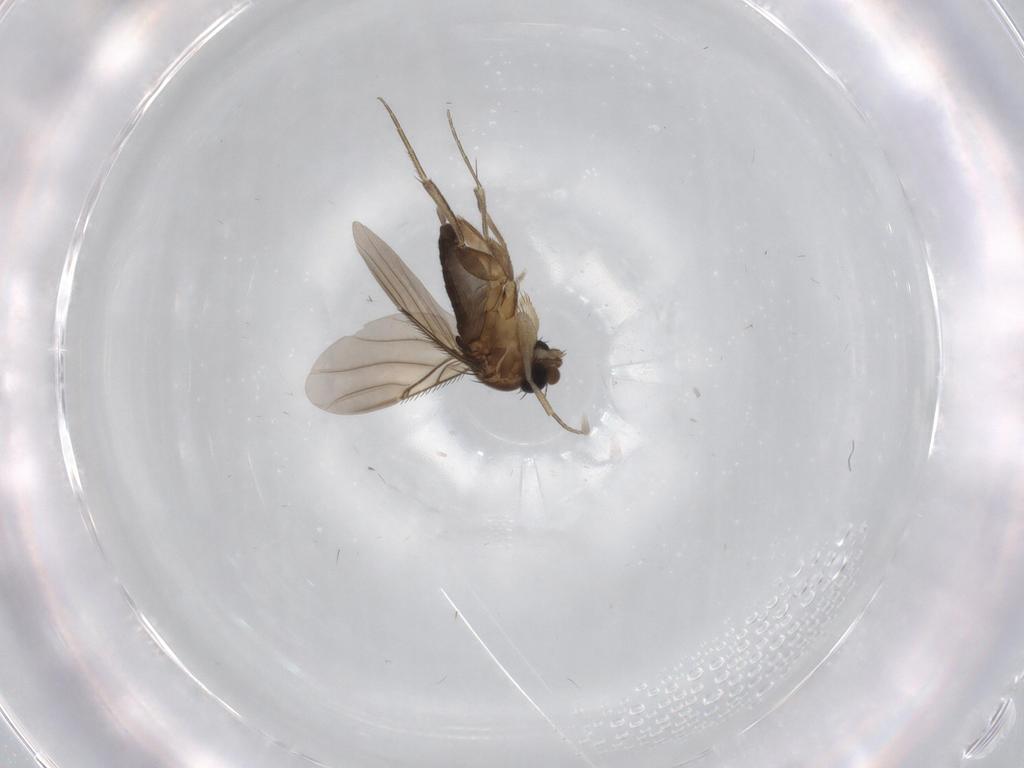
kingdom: Animalia
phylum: Arthropoda
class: Insecta
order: Diptera
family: Phoridae
